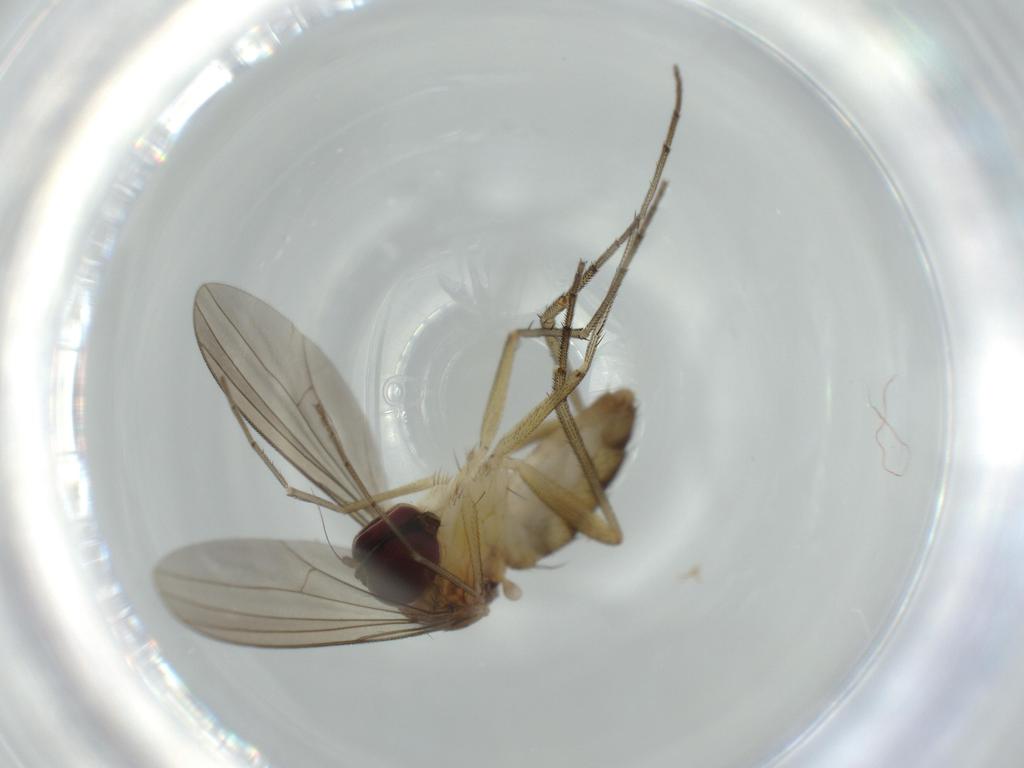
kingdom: Animalia
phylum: Arthropoda
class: Insecta
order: Diptera
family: Dolichopodidae
